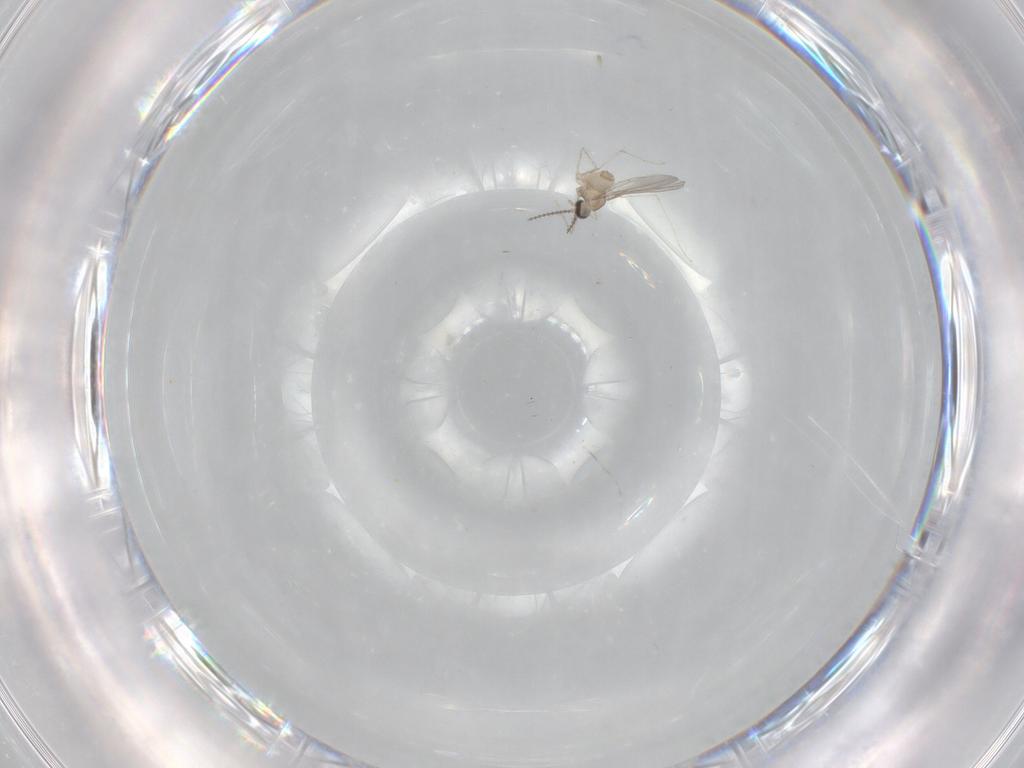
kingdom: Animalia
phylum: Arthropoda
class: Insecta
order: Diptera
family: Cecidomyiidae
